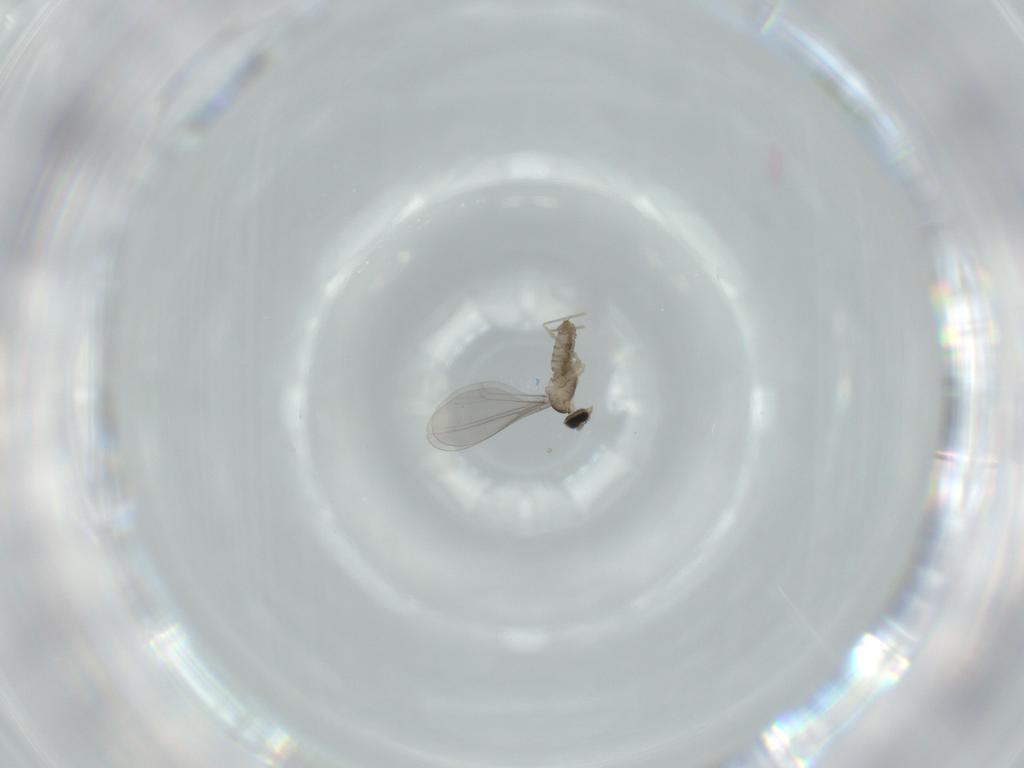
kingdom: Animalia
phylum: Arthropoda
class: Insecta
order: Diptera
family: Cecidomyiidae
